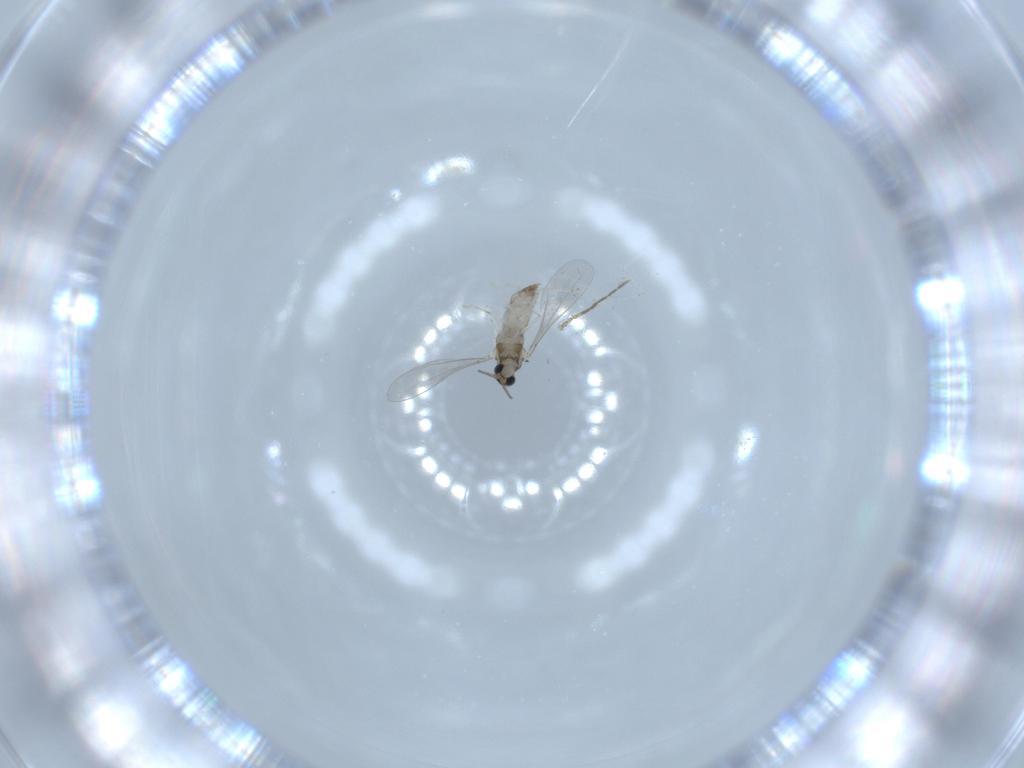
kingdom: Animalia
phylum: Arthropoda
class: Insecta
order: Diptera
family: Ceratopogonidae
